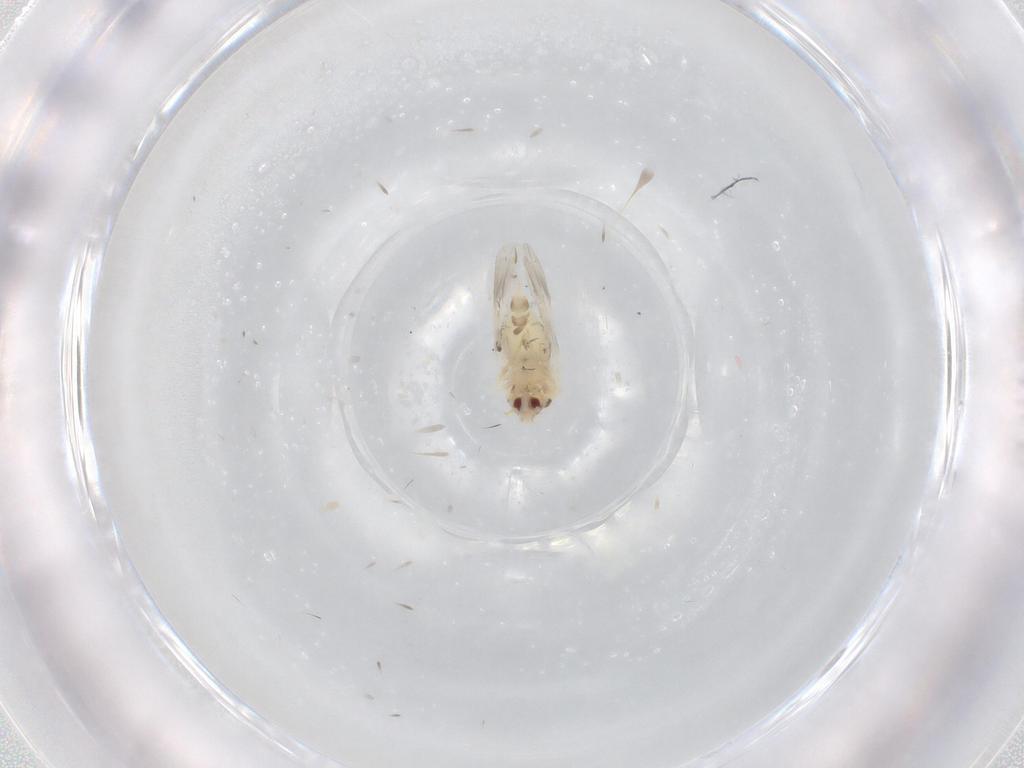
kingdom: Animalia
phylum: Arthropoda
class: Insecta
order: Hemiptera
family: Aleyrodidae
